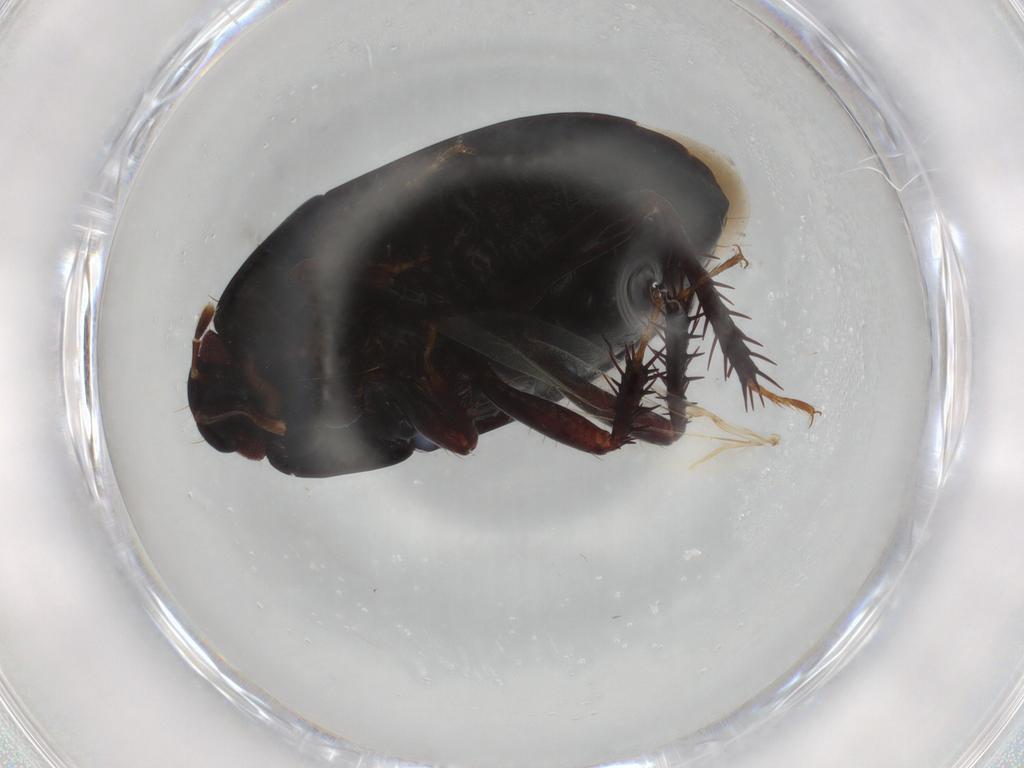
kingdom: Animalia
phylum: Arthropoda
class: Insecta
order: Hemiptera
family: Cydnidae
